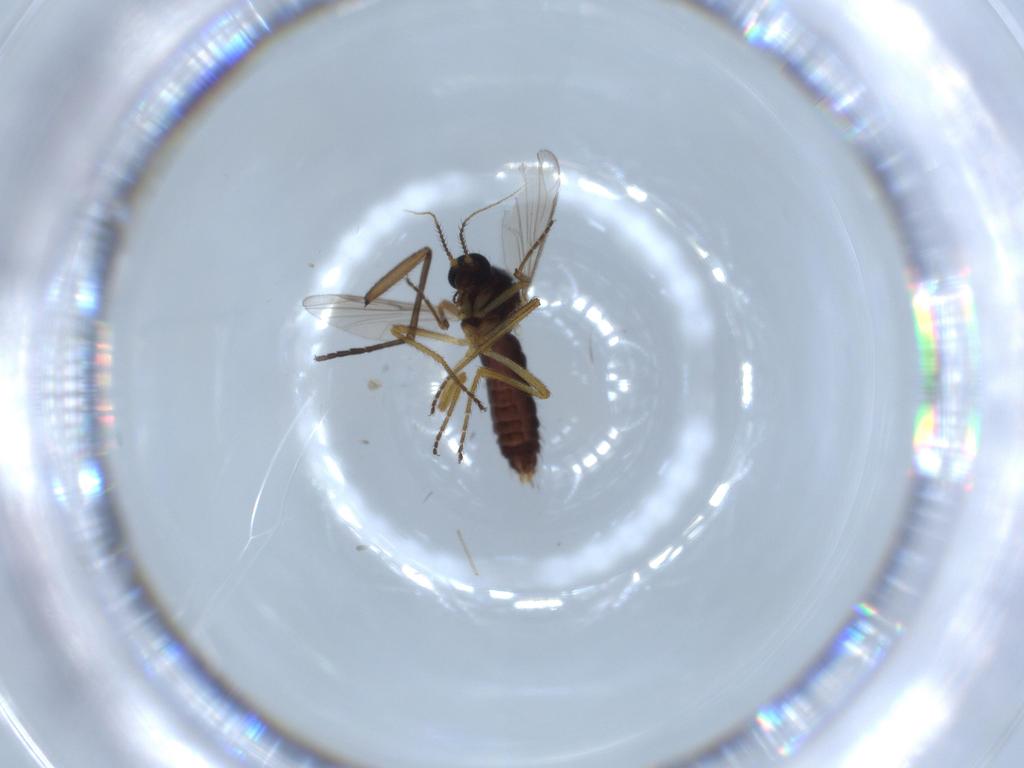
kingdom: Animalia
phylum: Arthropoda
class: Insecta
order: Diptera
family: Ceratopogonidae
